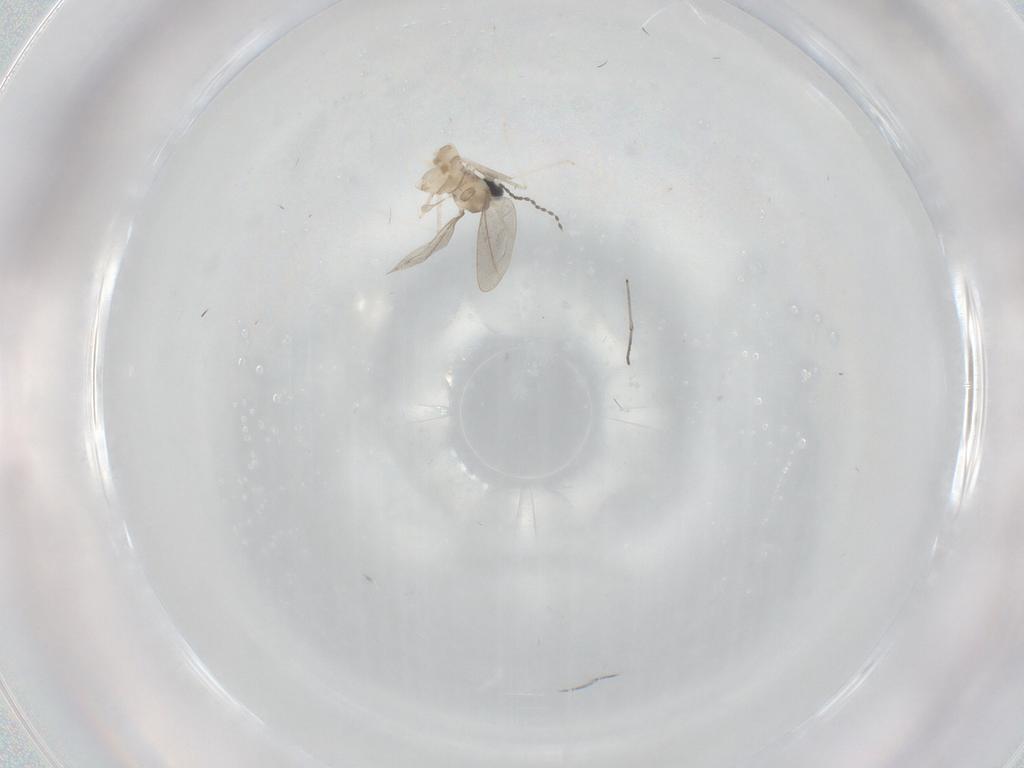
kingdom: Animalia
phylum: Arthropoda
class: Insecta
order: Diptera
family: Cecidomyiidae
